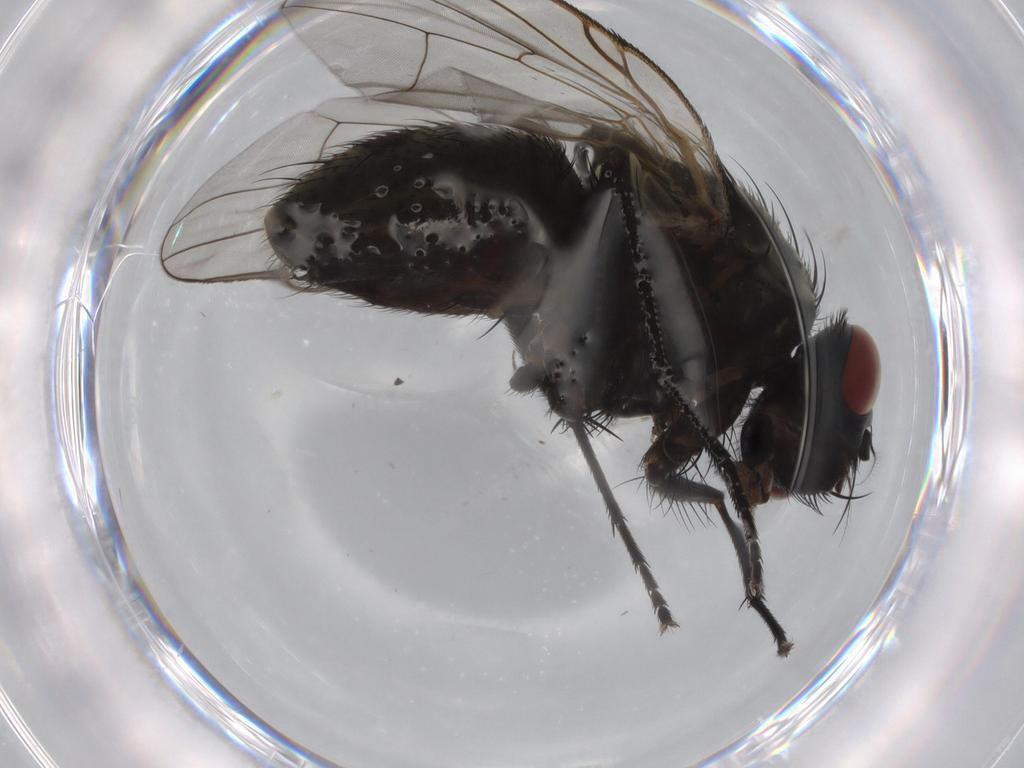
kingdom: Animalia
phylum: Arthropoda
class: Insecta
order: Diptera
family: Muscidae
